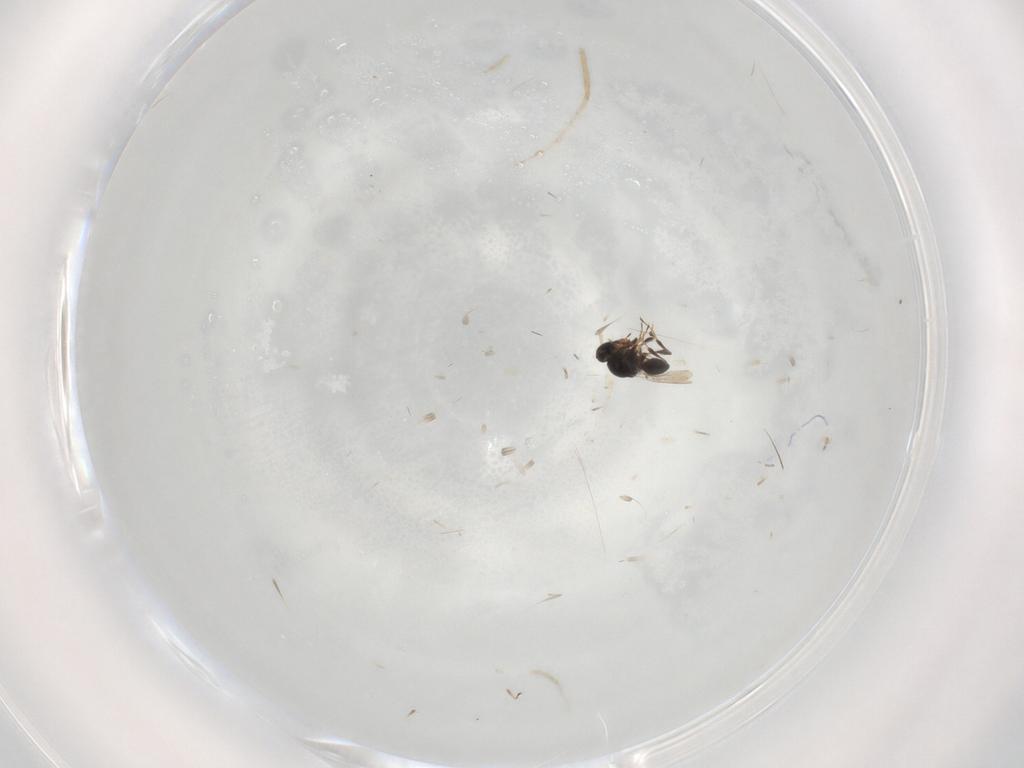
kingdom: Animalia
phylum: Arthropoda
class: Insecta
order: Hymenoptera
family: Platygastridae
